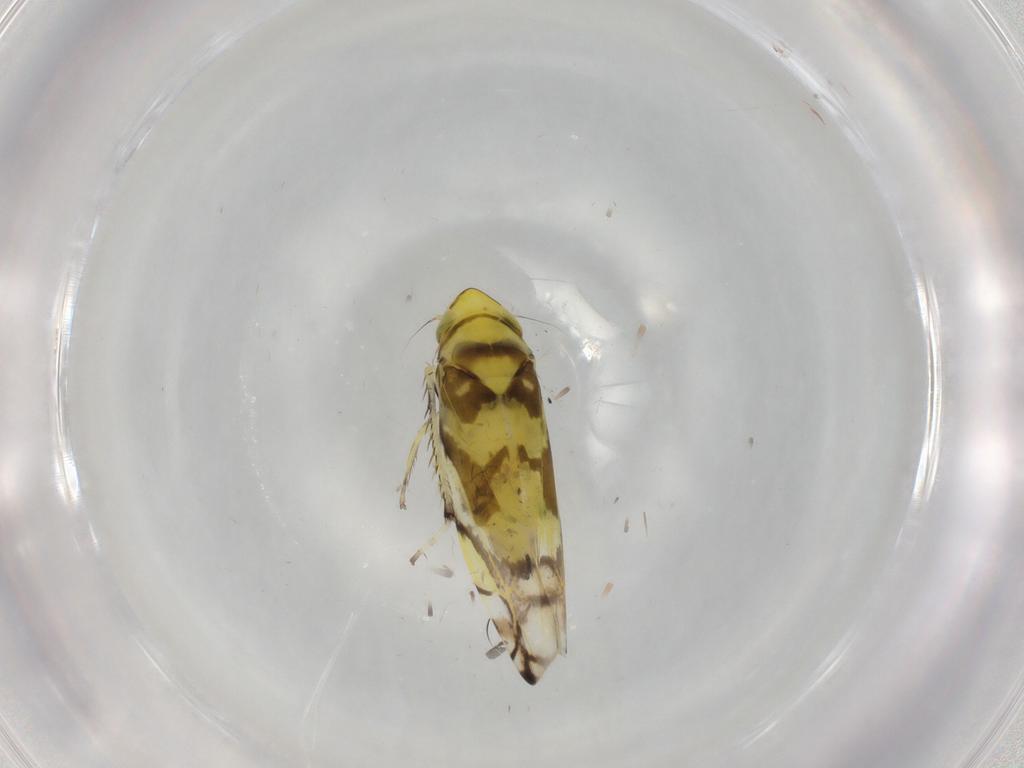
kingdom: Animalia
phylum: Arthropoda
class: Insecta
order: Hemiptera
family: Cicadellidae
